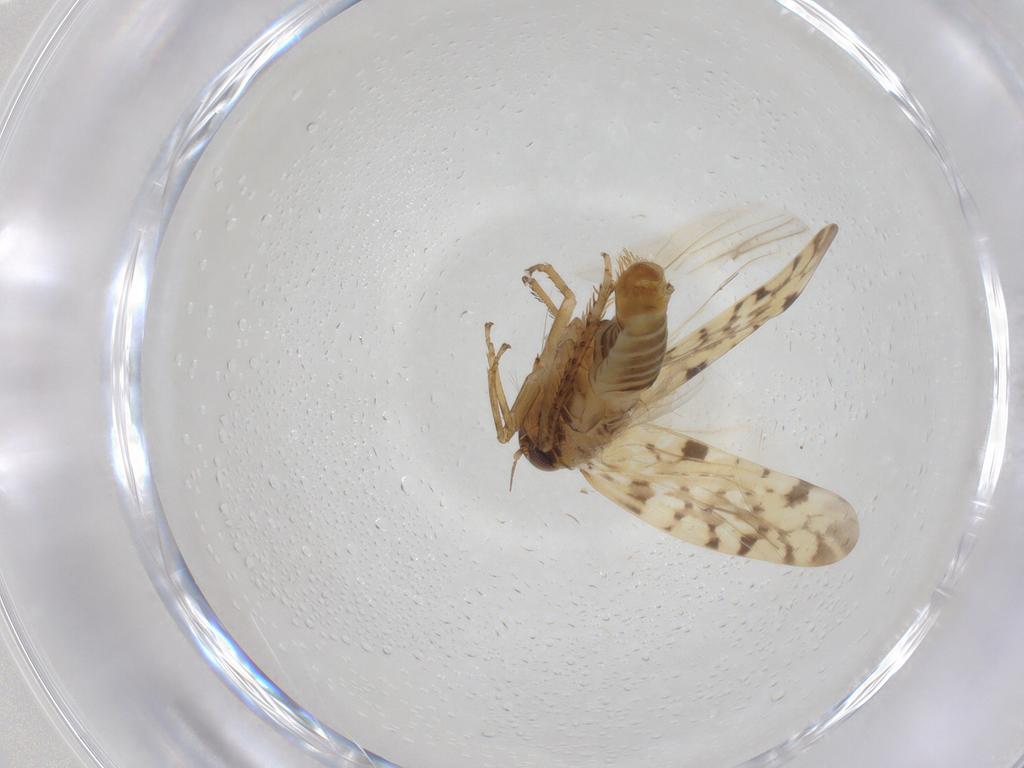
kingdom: Animalia
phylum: Arthropoda
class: Insecta
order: Hemiptera
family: Cicadellidae
